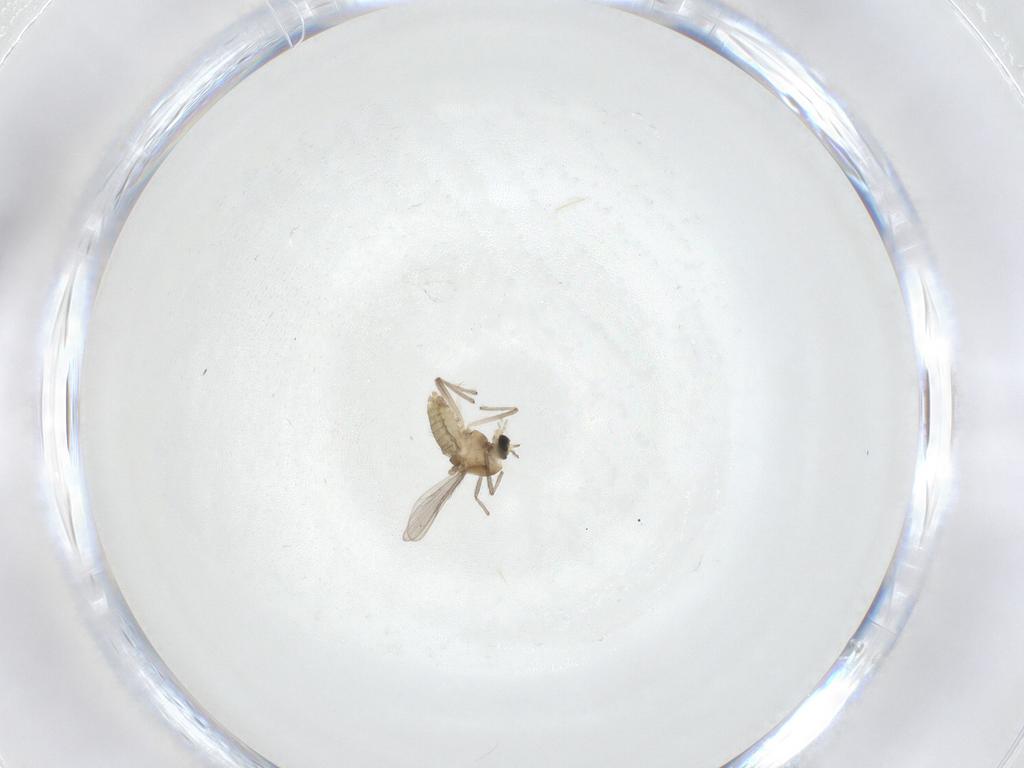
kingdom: Animalia
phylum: Arthropoda
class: Insecta
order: Diptera
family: Chironomidae
